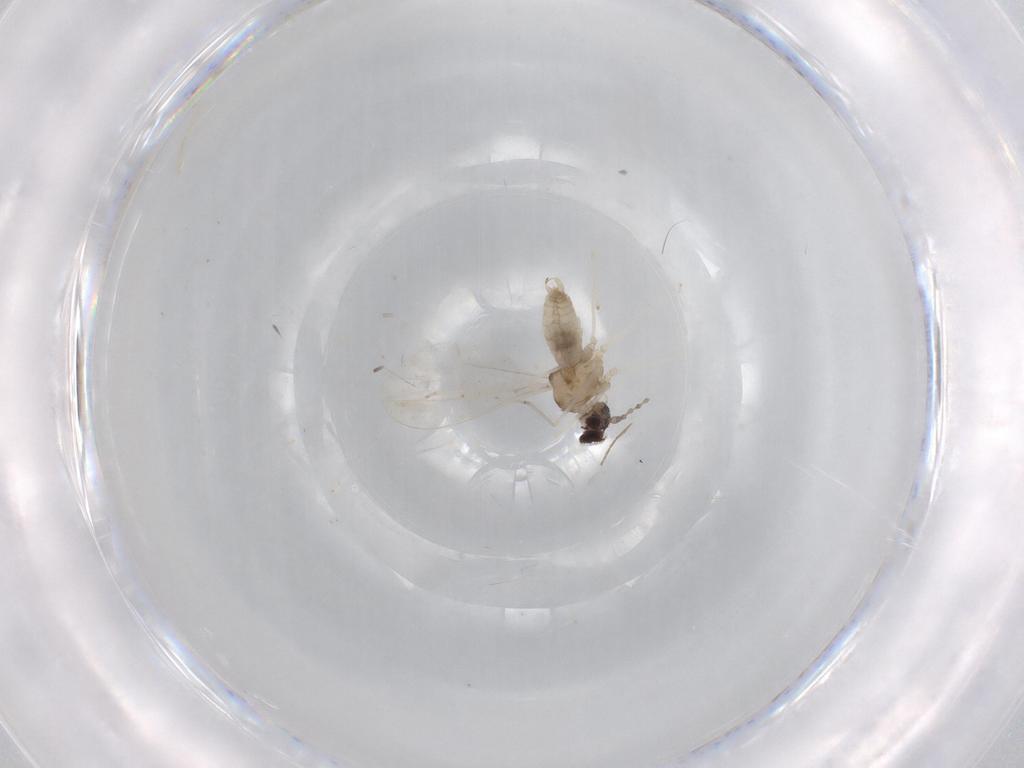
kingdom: Animalia
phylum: Arthropoda
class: Insecta
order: Diptera
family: Cecidomyiidae
